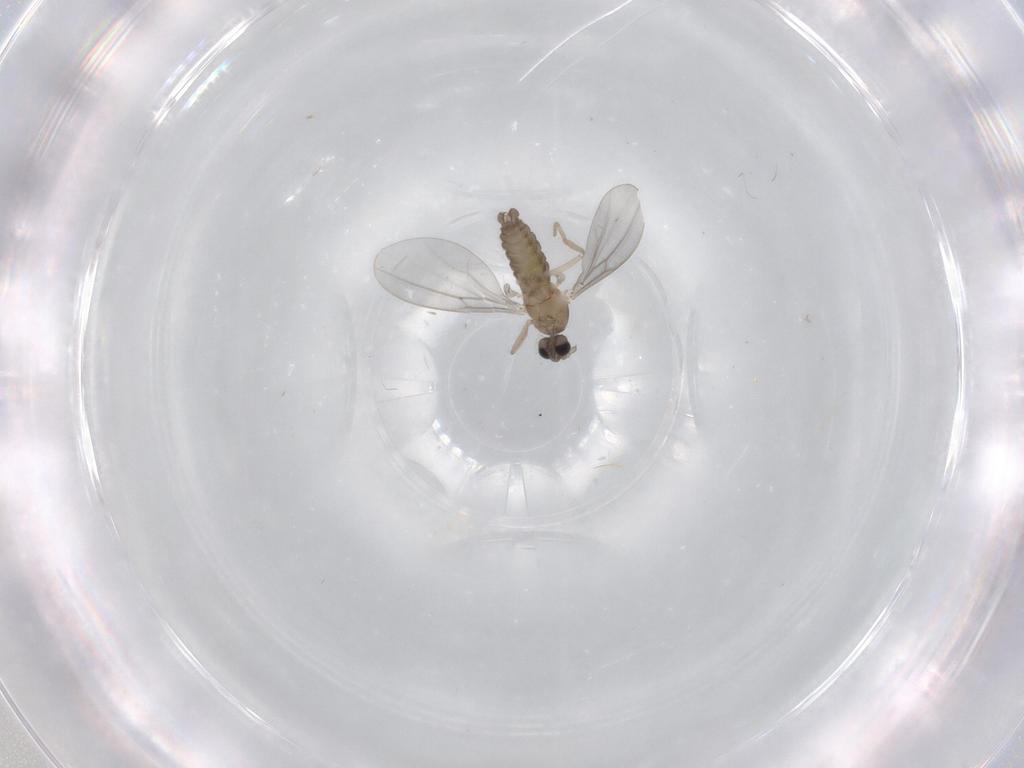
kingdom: Animalia
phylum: Arthropoda
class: Insecta
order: Diptera
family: Cecidomyiidae
